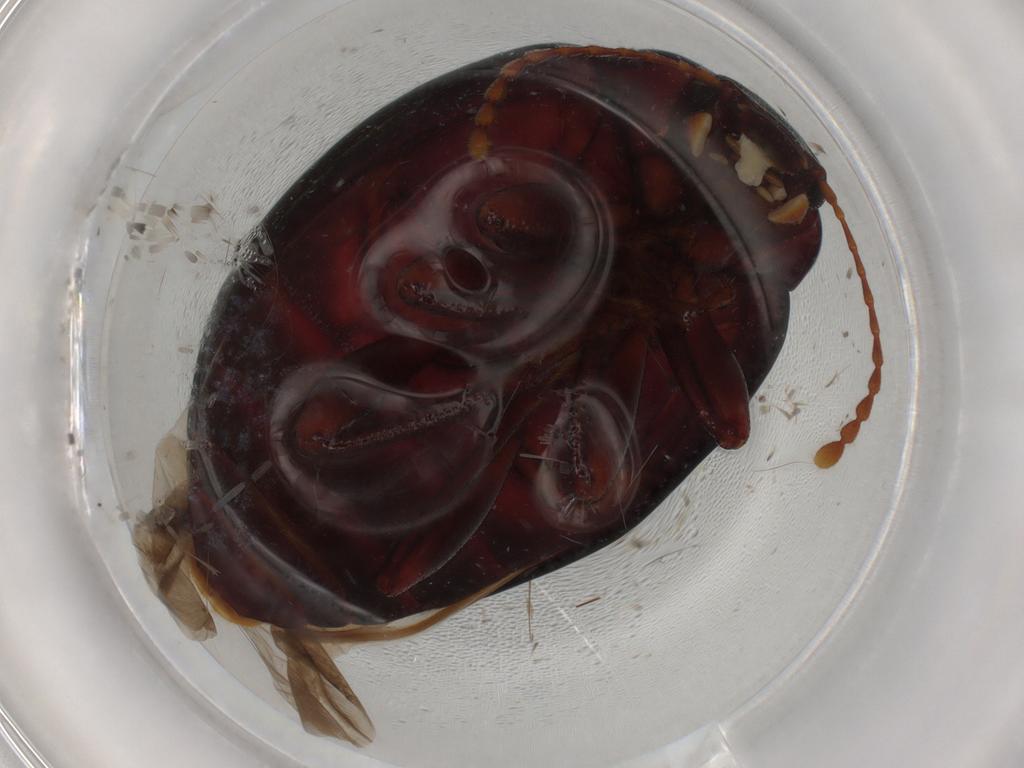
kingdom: Animalia
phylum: Arthropoda
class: Insecta
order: Coleoptera
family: Tenebrionidae
